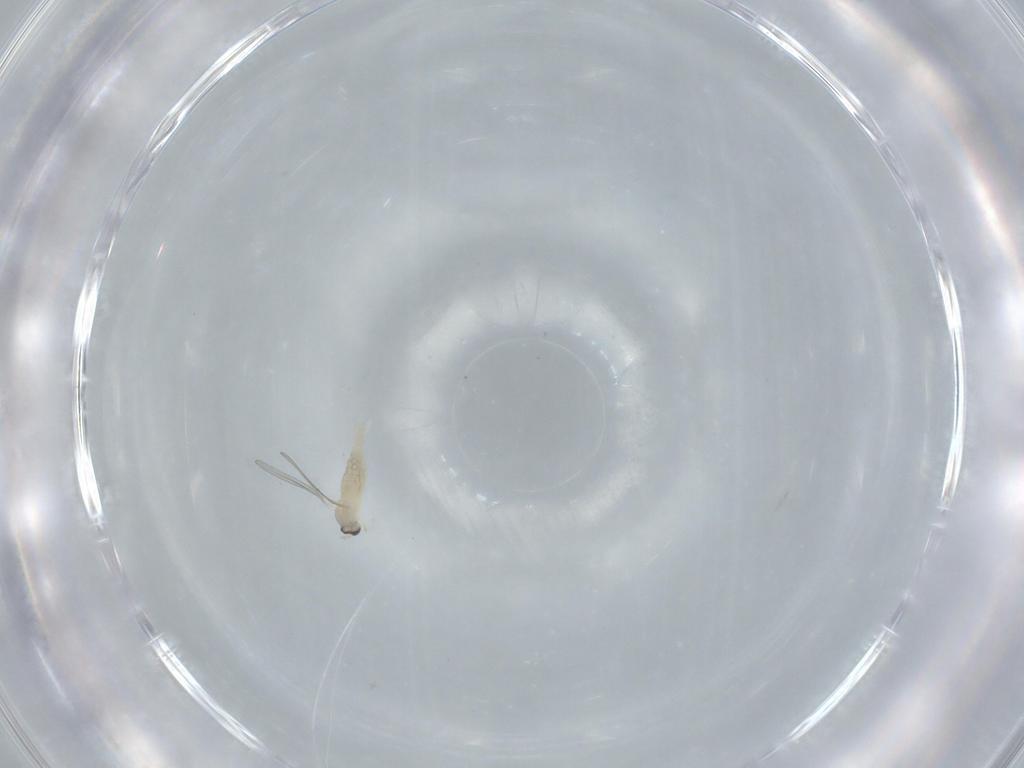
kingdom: Animalia
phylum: Arthropoda
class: Insecta
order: Diptera
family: Cecidomyiidae
